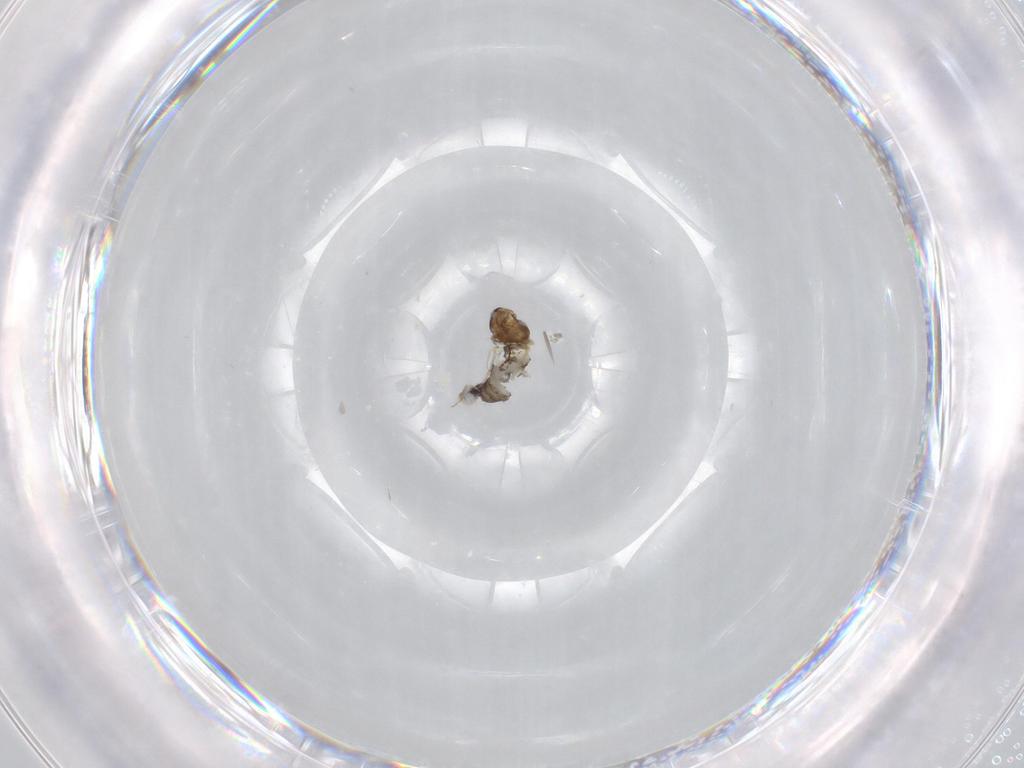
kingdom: Animalia
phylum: Arthropoda
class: Insecta
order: Diptera
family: Chironomidae
